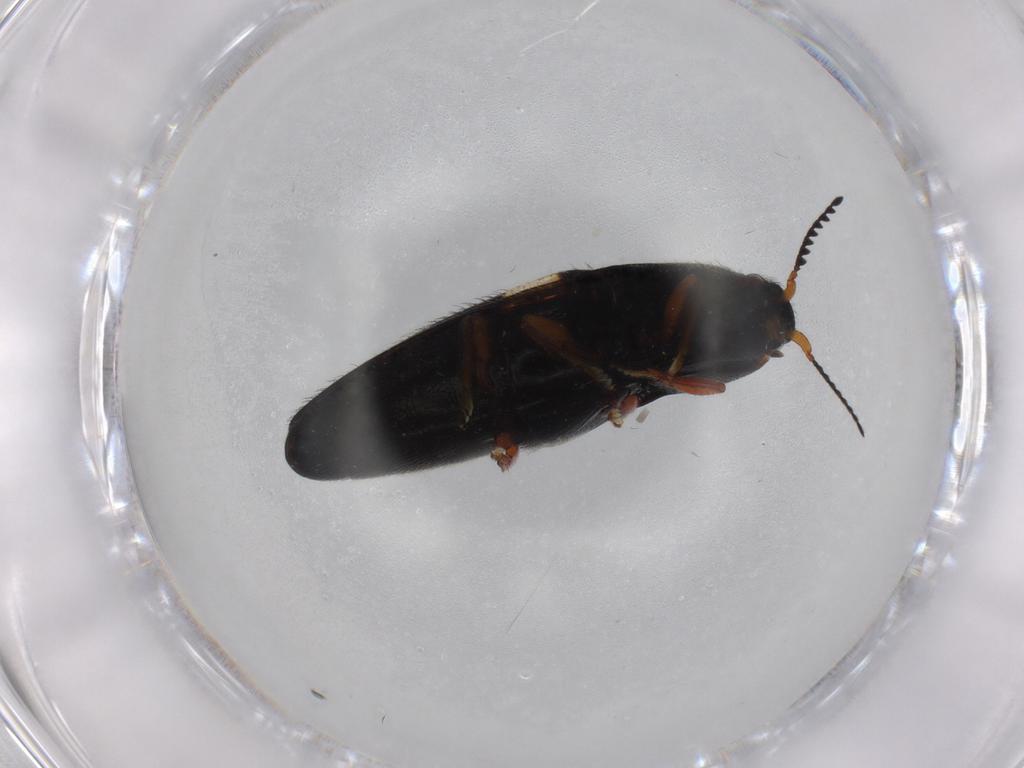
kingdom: Animalia
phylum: Arthropoda
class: Insecta
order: Coleoptera
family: Elateridae
